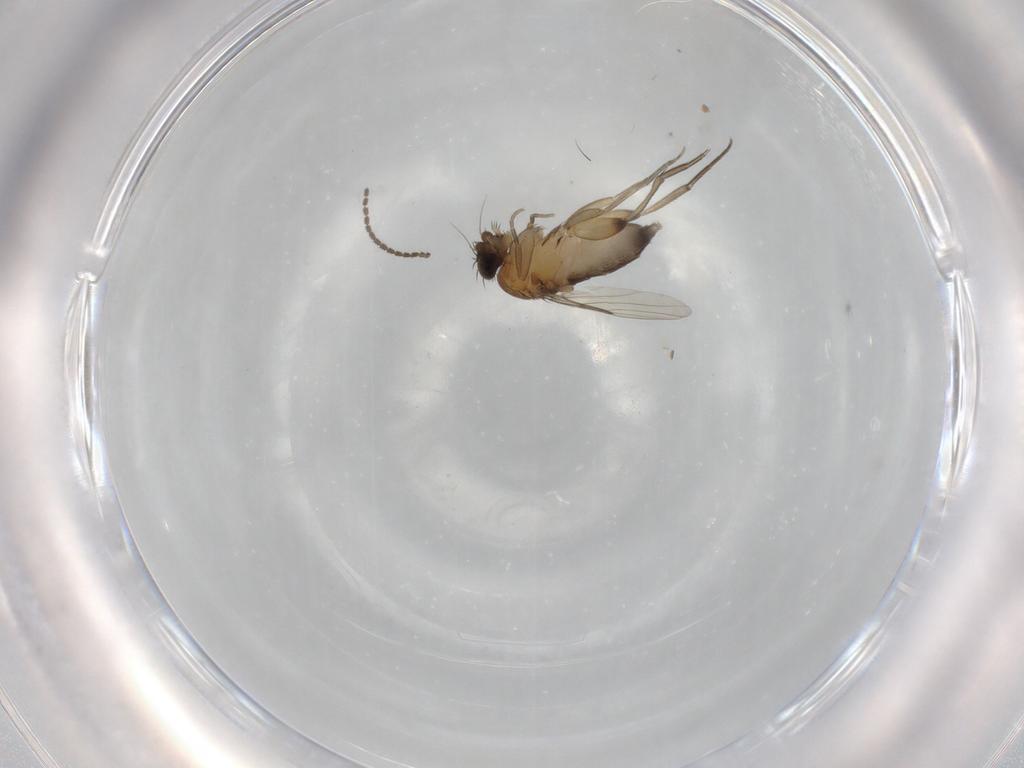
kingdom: Animalia
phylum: Arthropoda
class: Insecta
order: Diptera
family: Phoridae
